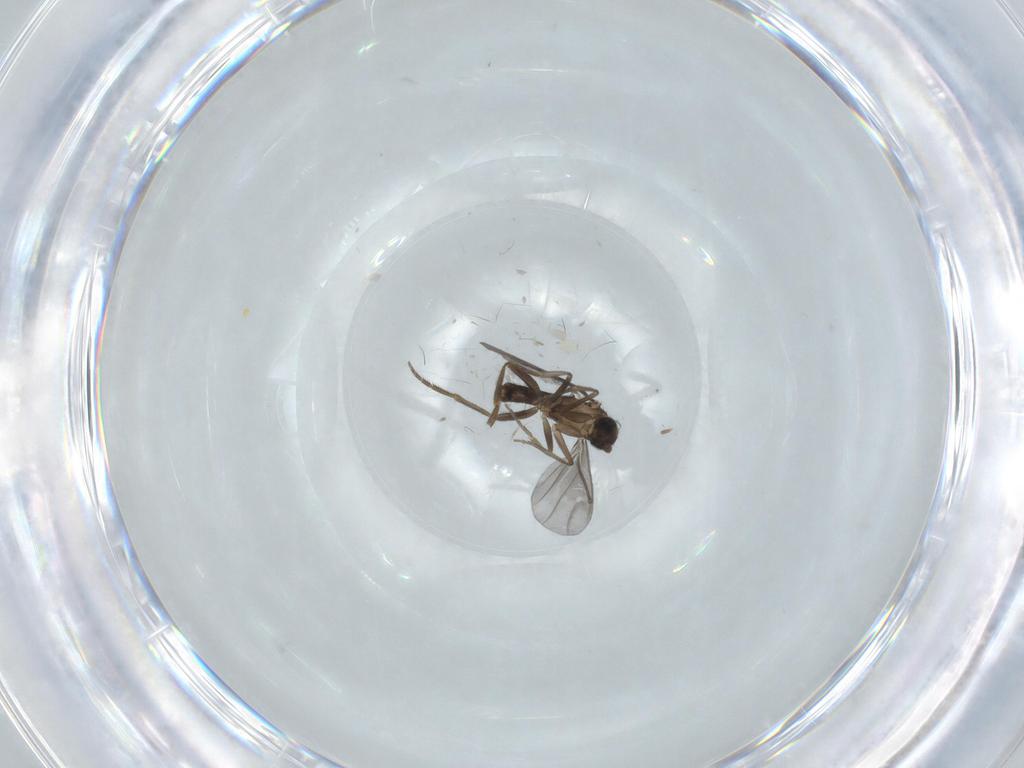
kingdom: Animalia
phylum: Arthropoda
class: Insecta
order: Diptera
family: Phoridae
